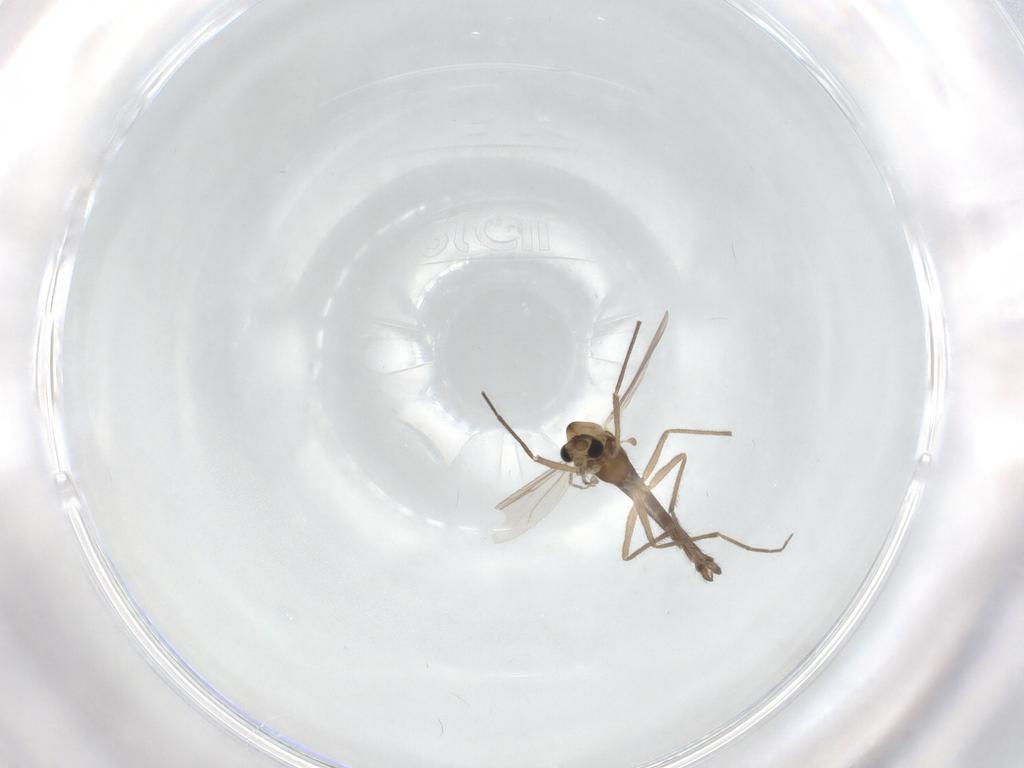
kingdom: Animalia
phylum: Arthropoda
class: Insecta
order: Diptera
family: Chironomidae
